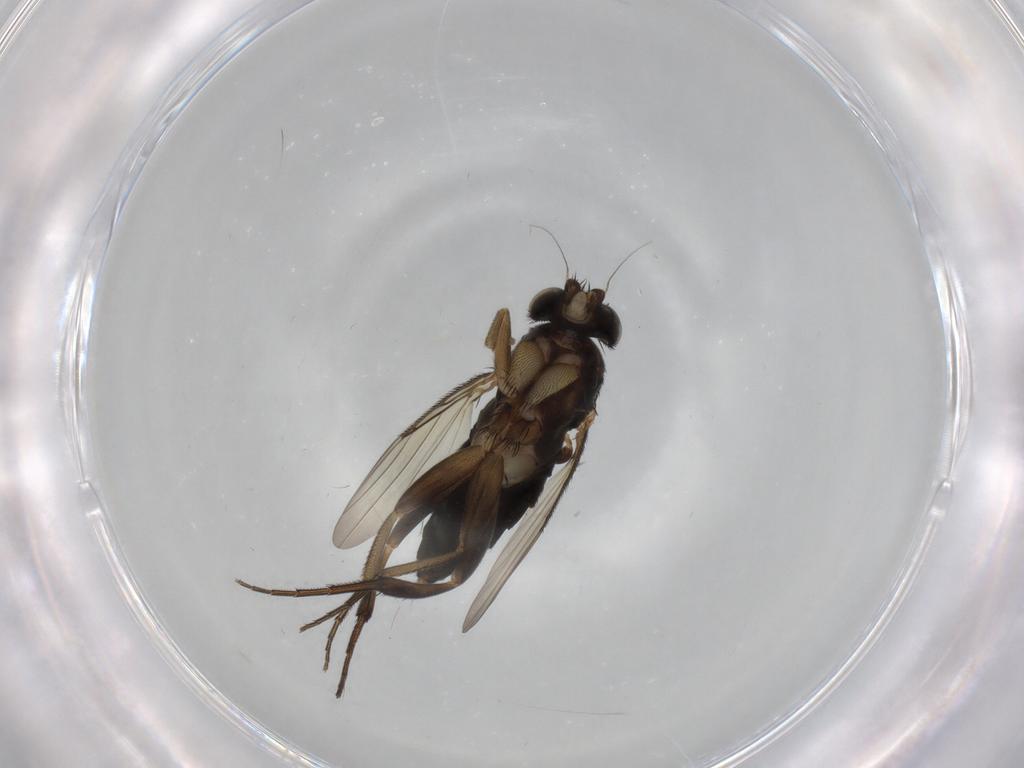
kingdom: Animalia
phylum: Arthropoda
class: Insecta
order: Diptera
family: Phoridae
